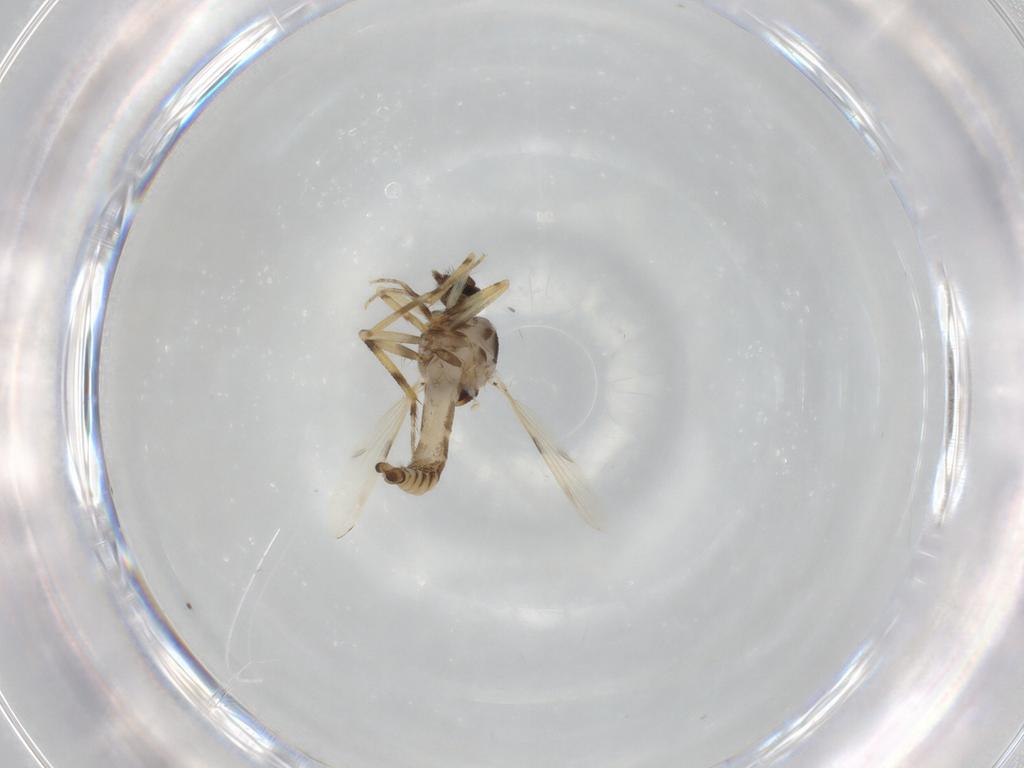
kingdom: Animalia
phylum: Arthropoda
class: Insecta
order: Diptera
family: Ceratopogonidae
